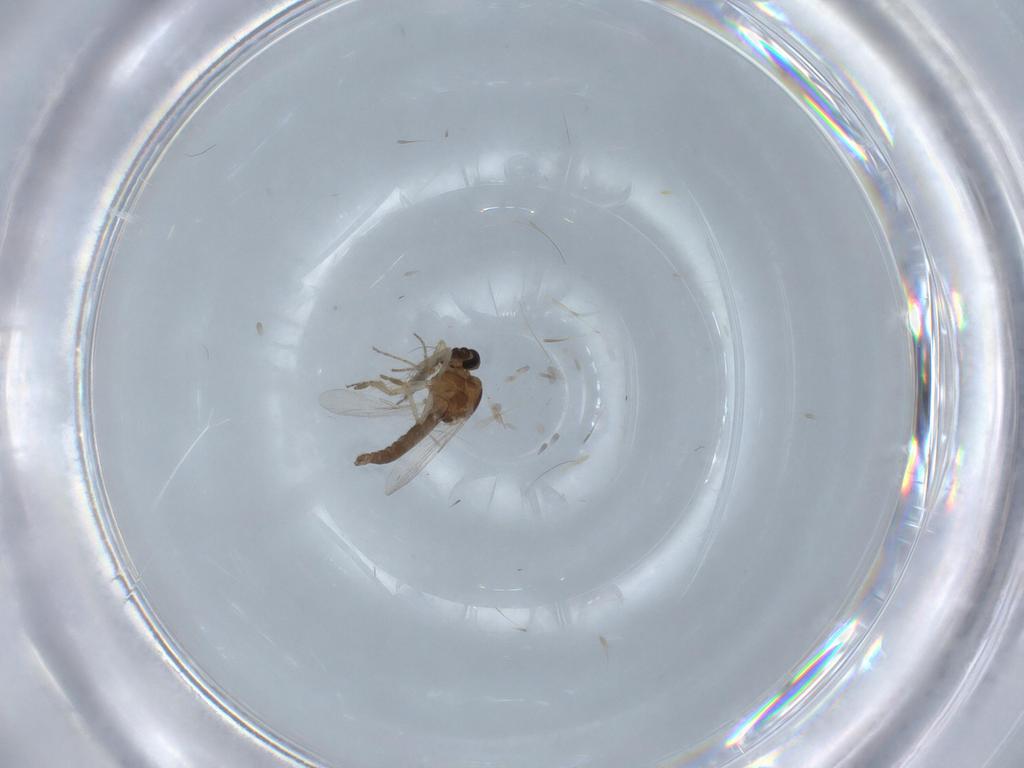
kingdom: Animalia
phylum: Arthropoda
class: Insecta
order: Diptera
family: Ceratopogonidae
